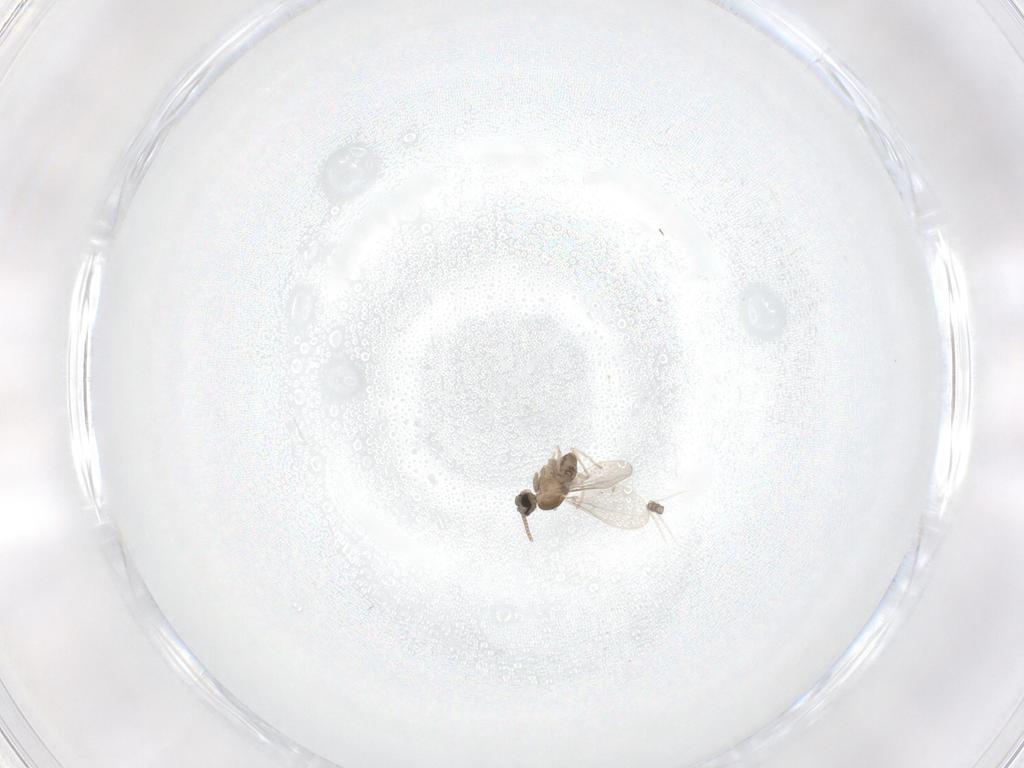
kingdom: Animalia
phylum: Arthropoda
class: Insecta
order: Diptera
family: Psychodidae
